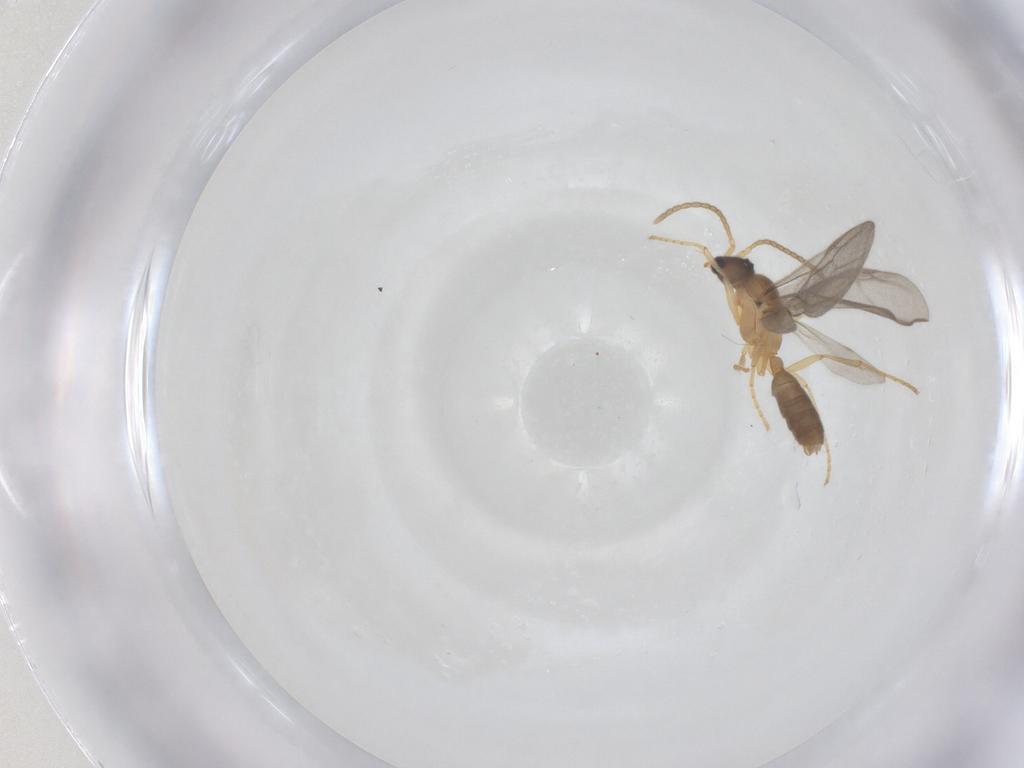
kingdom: Animalia
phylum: Arthropoda
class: Insecta
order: Hymenoptera
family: Formicidae
